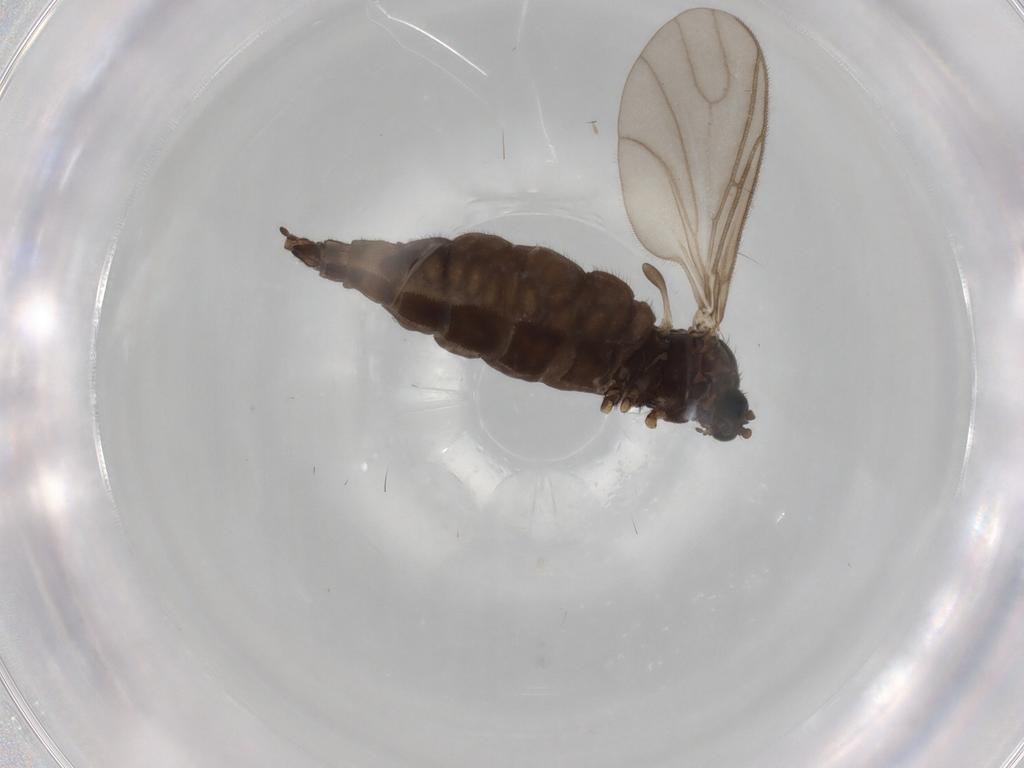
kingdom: Animalia
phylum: Arthropoda
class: Insecta
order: Diptera
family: Sciaridae
